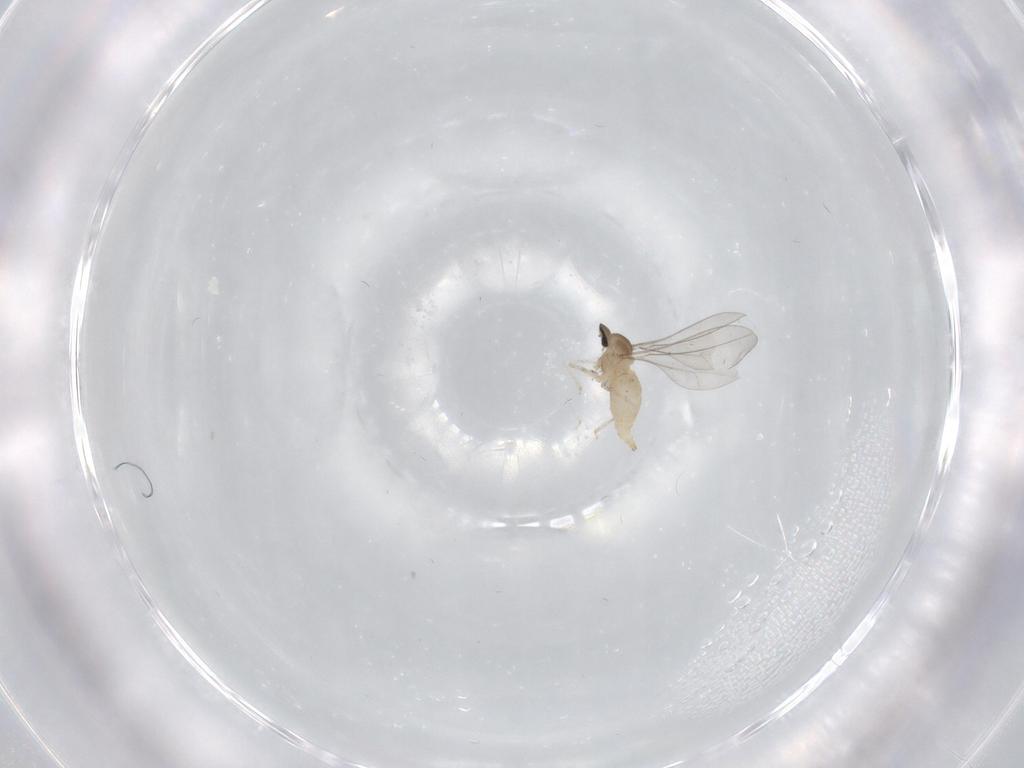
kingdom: Animalia
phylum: Arthropoda
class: Insecta
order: Diptera
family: Cecidomyiidae
